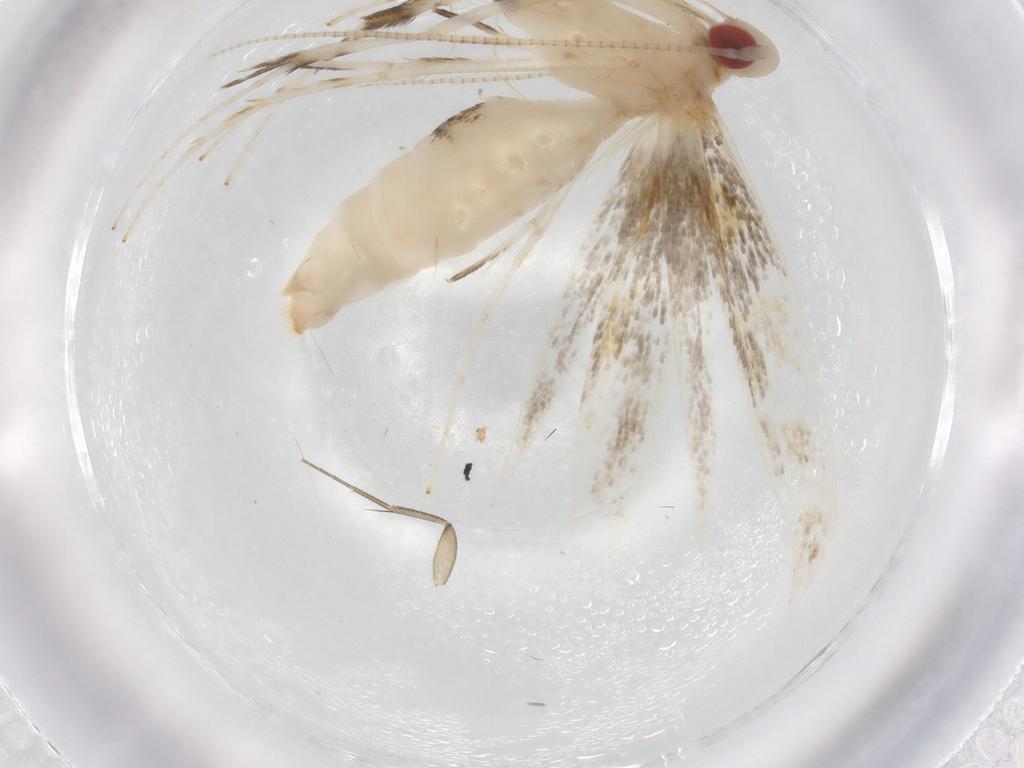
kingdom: Animalia
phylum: Arthropoda
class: Insecta
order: Lepidoptera
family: Gracillariidae
